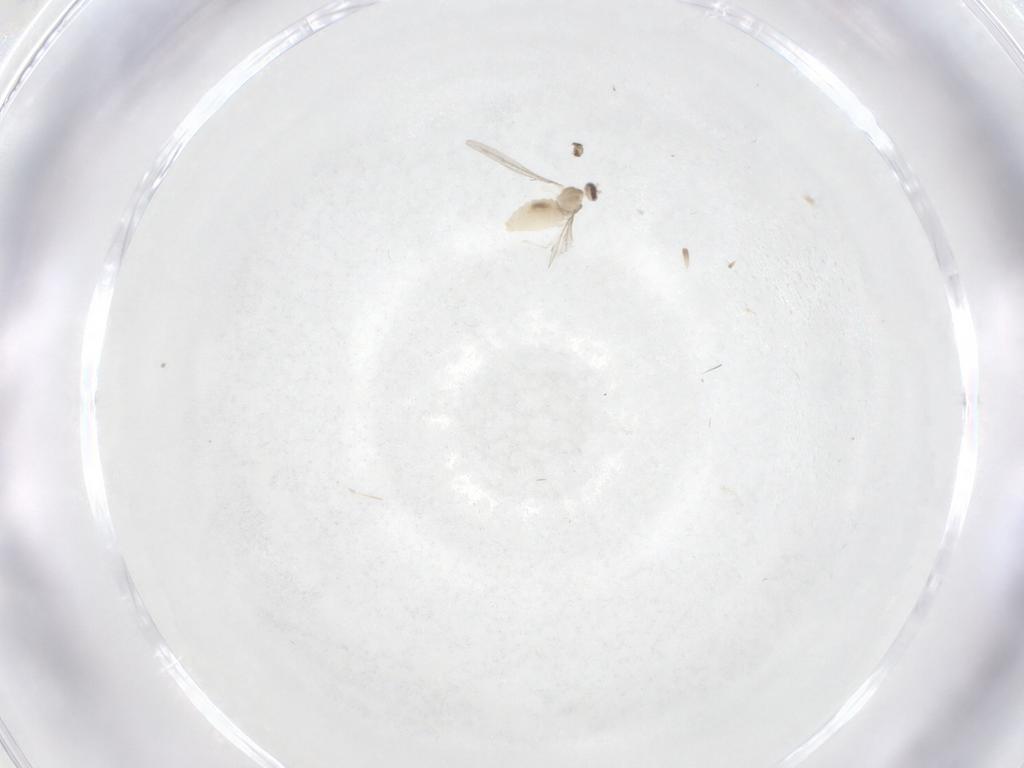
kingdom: Animalia
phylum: Arthropoda
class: Insecta
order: Diptera
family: Cecidomyiidae
